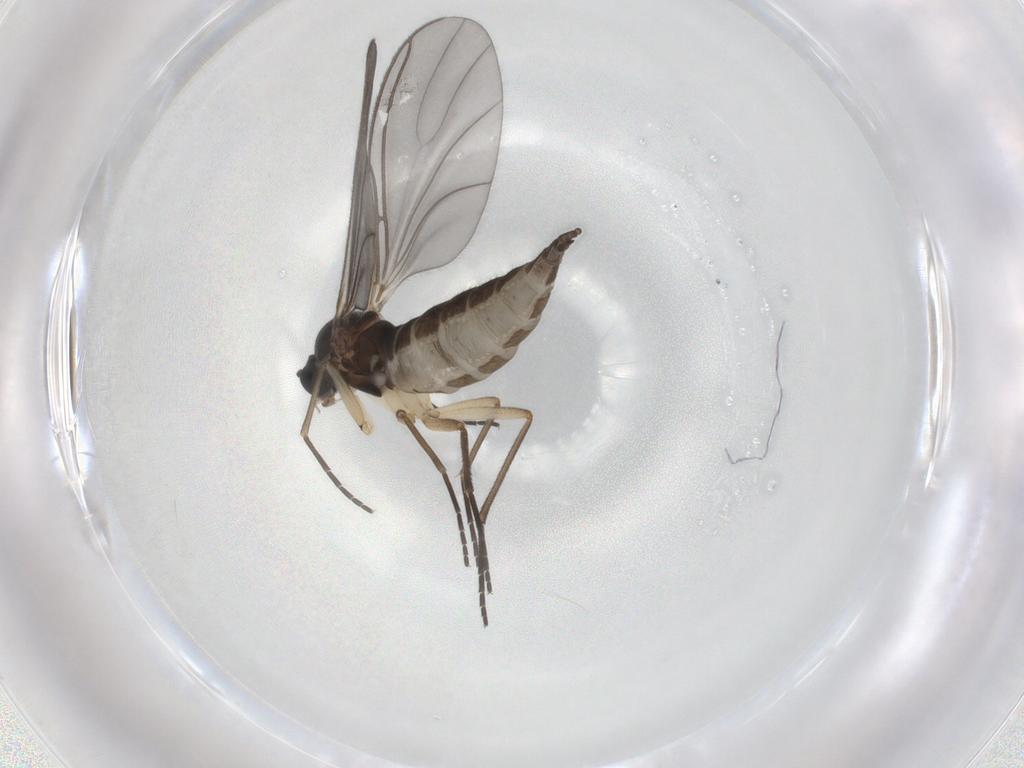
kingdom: Animalia
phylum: Arthropoda
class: Insecta
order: Diptera
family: Sciaridae
